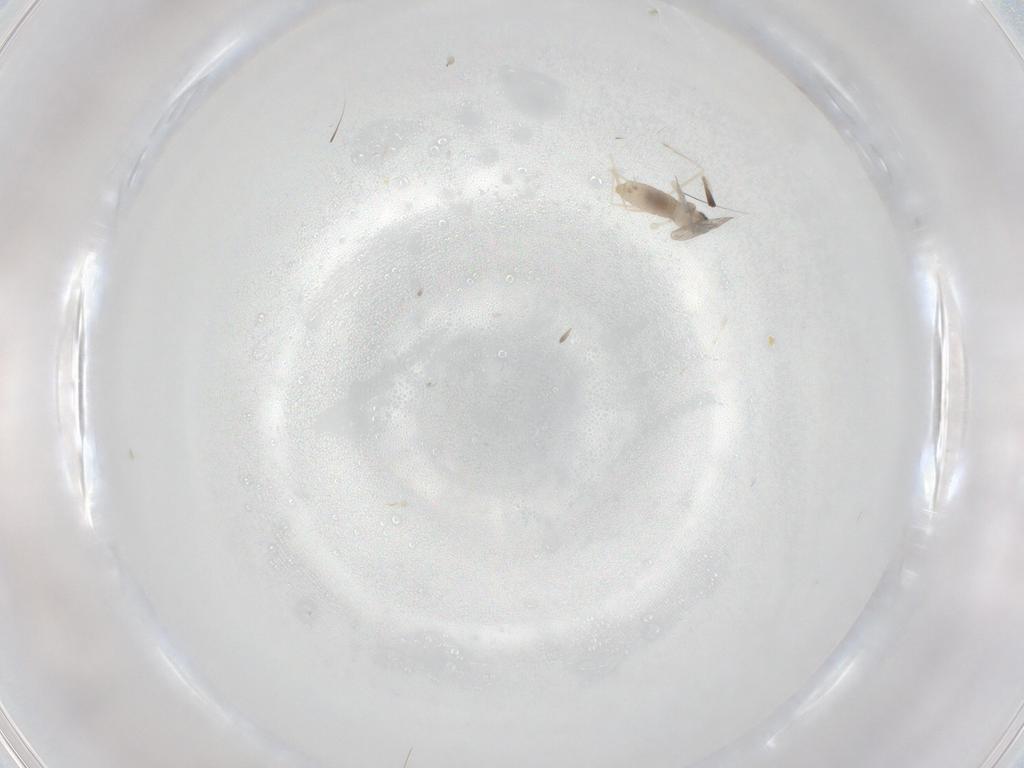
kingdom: Animalia
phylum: Arthropoda
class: Insecta
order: Diptera
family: Cecidomyiidae
